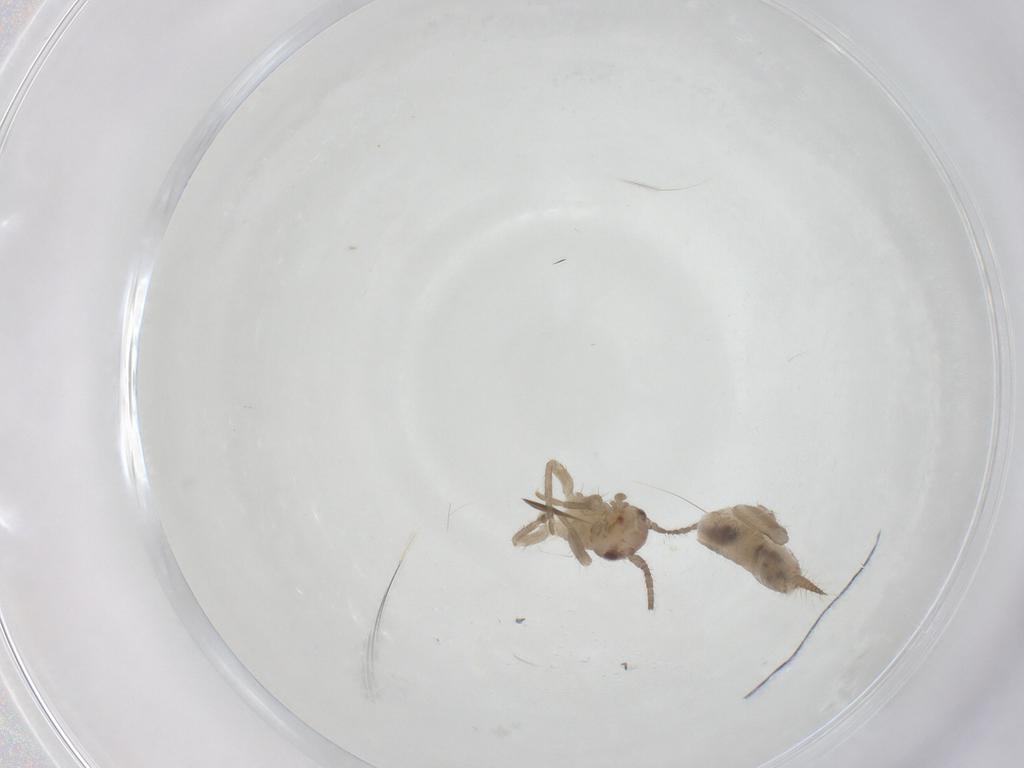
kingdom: Animalia
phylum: Arthropoda
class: Insecta
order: Orthoptera
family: Gryllidae
